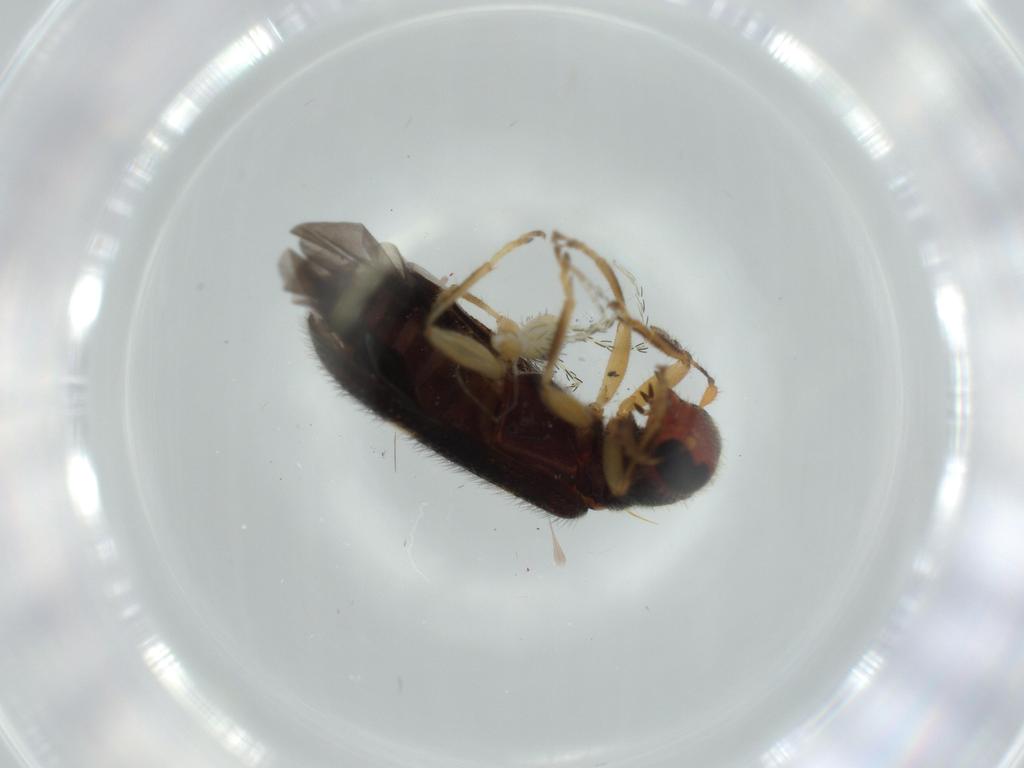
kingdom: Animalia
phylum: Arthropoda
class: Insecta
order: Coleoptera
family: Cleridae
